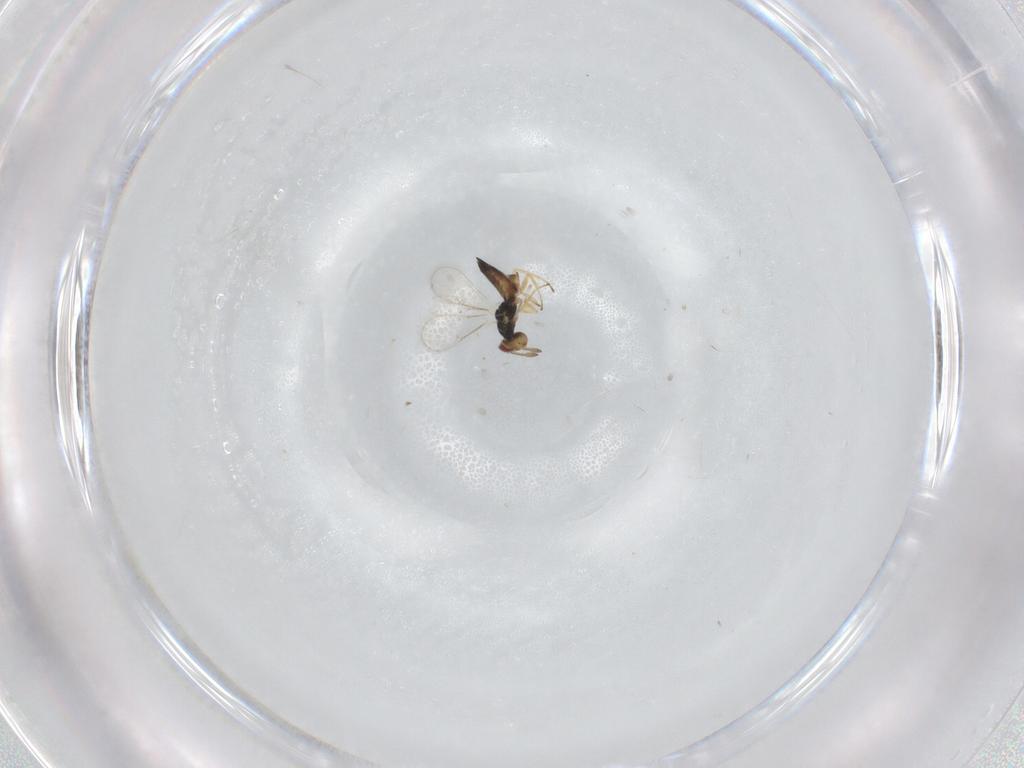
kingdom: Animalia
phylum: Arthropoda
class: Insecta
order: Hymenoptera
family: Eulophidae
